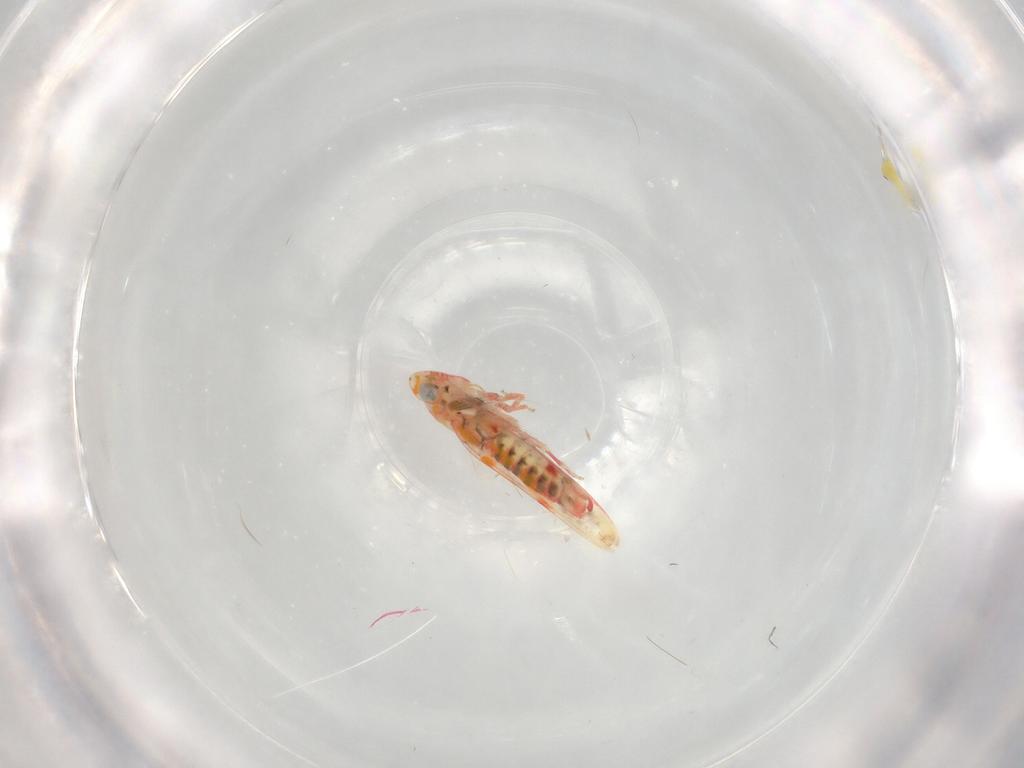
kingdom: Animalia
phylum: Arthropoda
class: Insecta
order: Hemiptera
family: Cicadellidae
